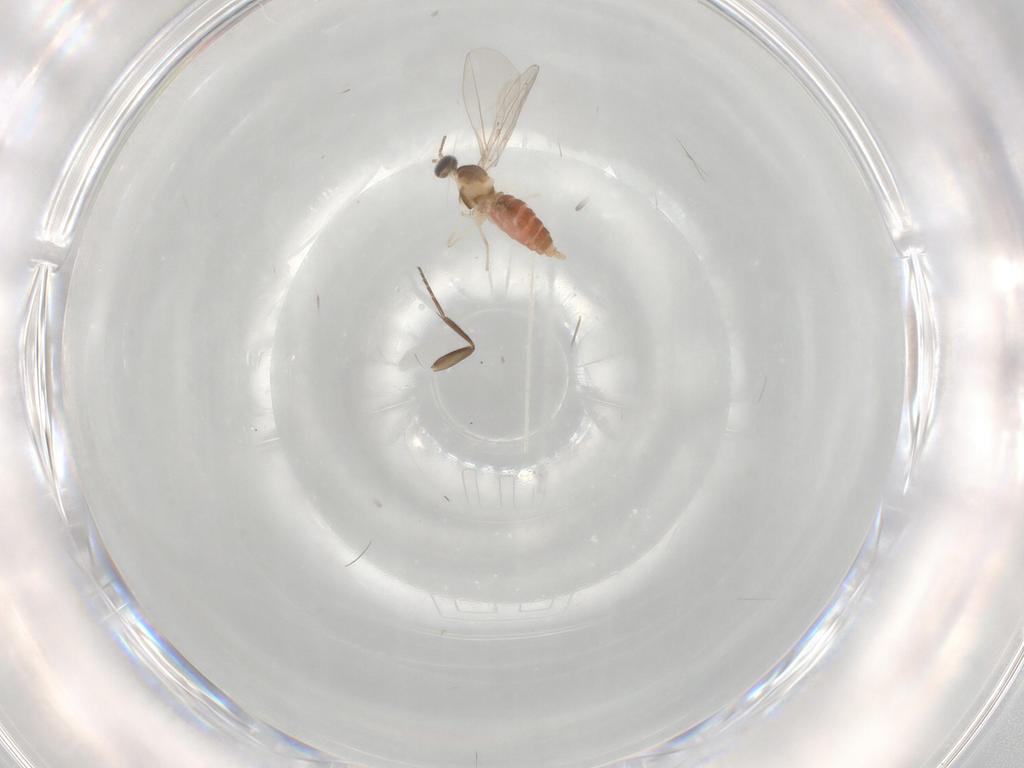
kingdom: Animalia
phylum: Arthropoda
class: Insecta
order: Diptera
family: Cecidomyiidae
